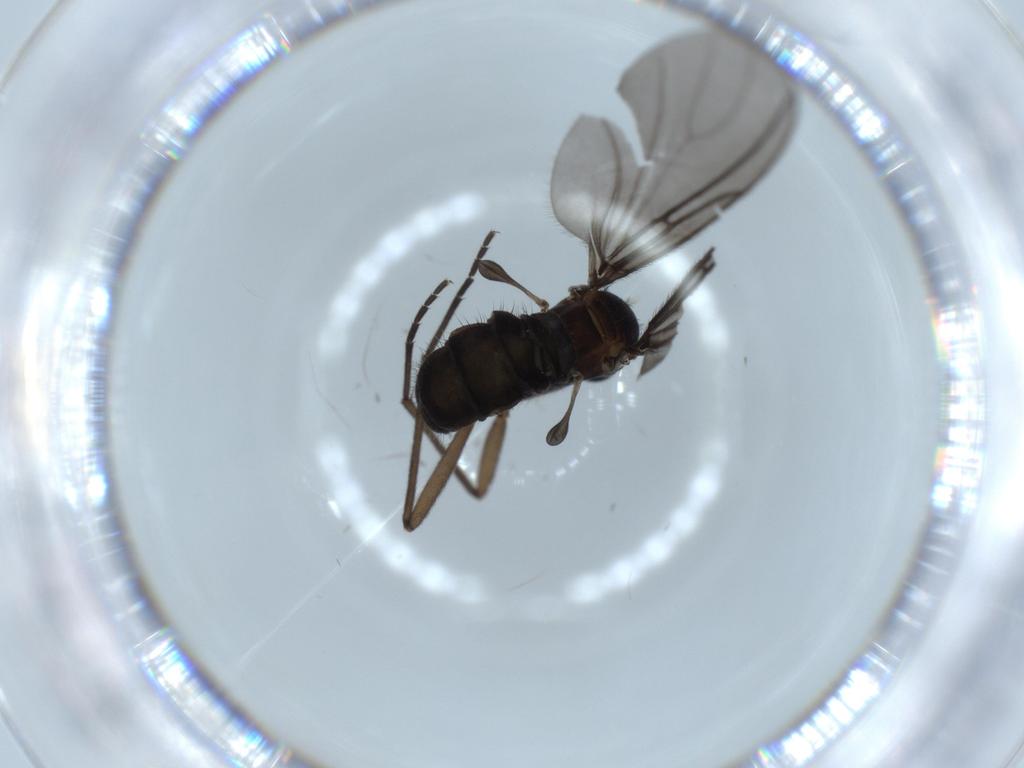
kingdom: Animalia
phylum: Arthropoda
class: Insecta
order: Diptera
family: Sciaridae
